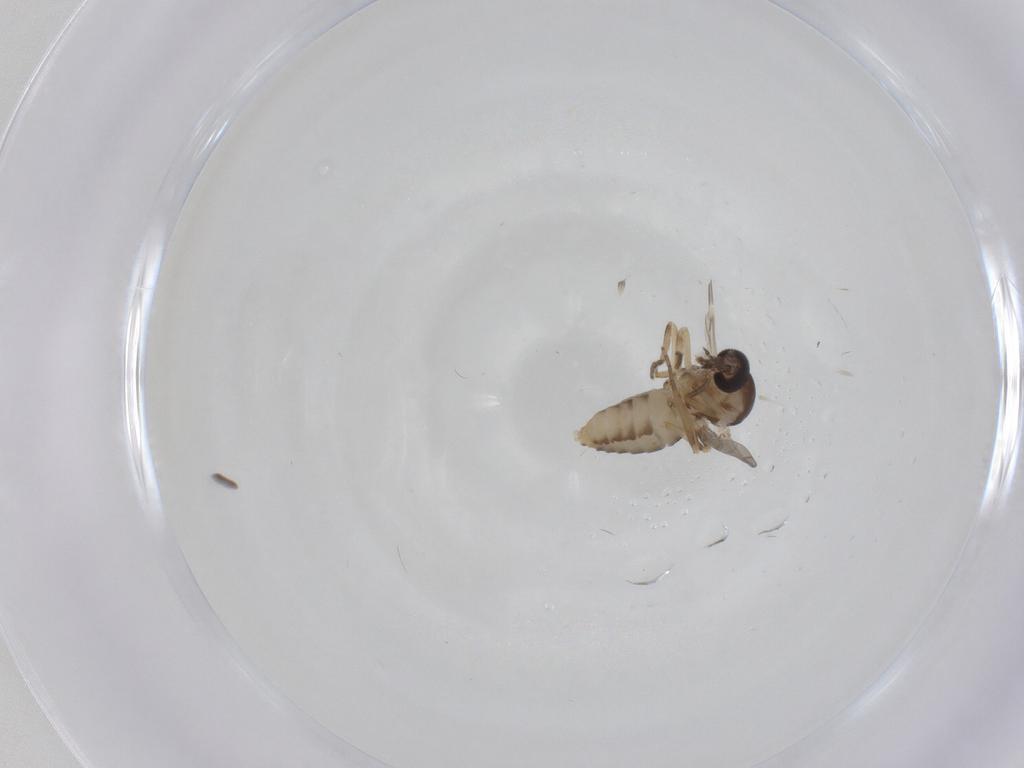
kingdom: Animalia
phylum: Arthropoda
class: Insecta
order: Diptera
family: Ceratopogonidae
